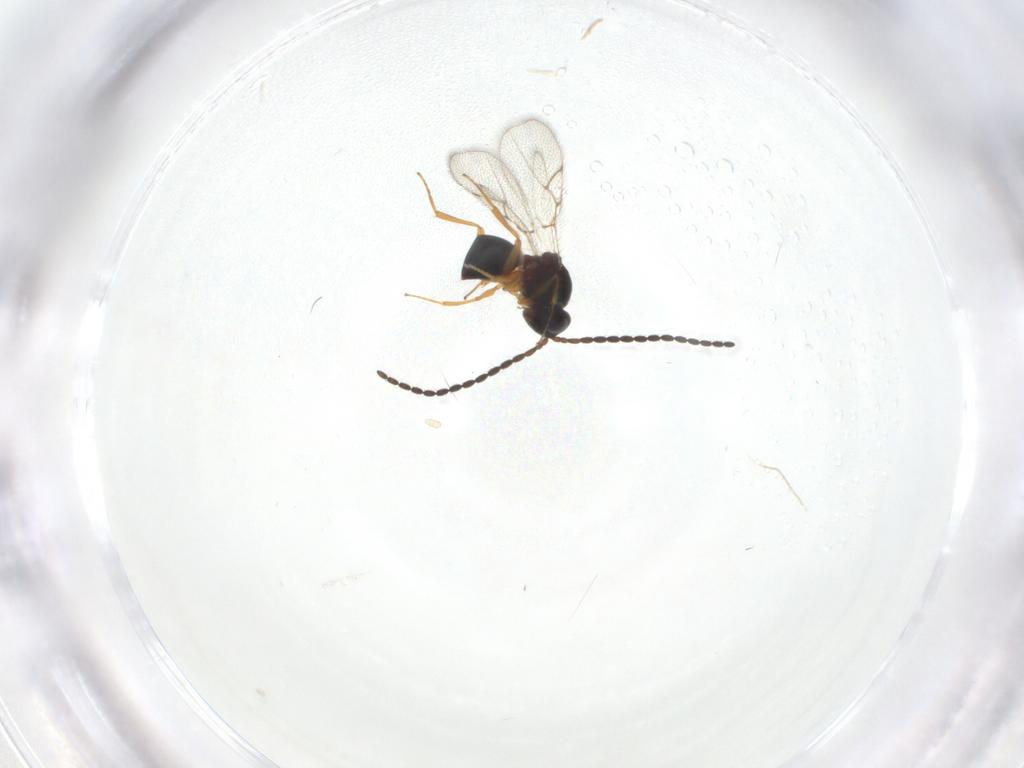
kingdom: Animalia
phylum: Arthropoda
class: Insecta
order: Hymenoptera
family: Figitidae
